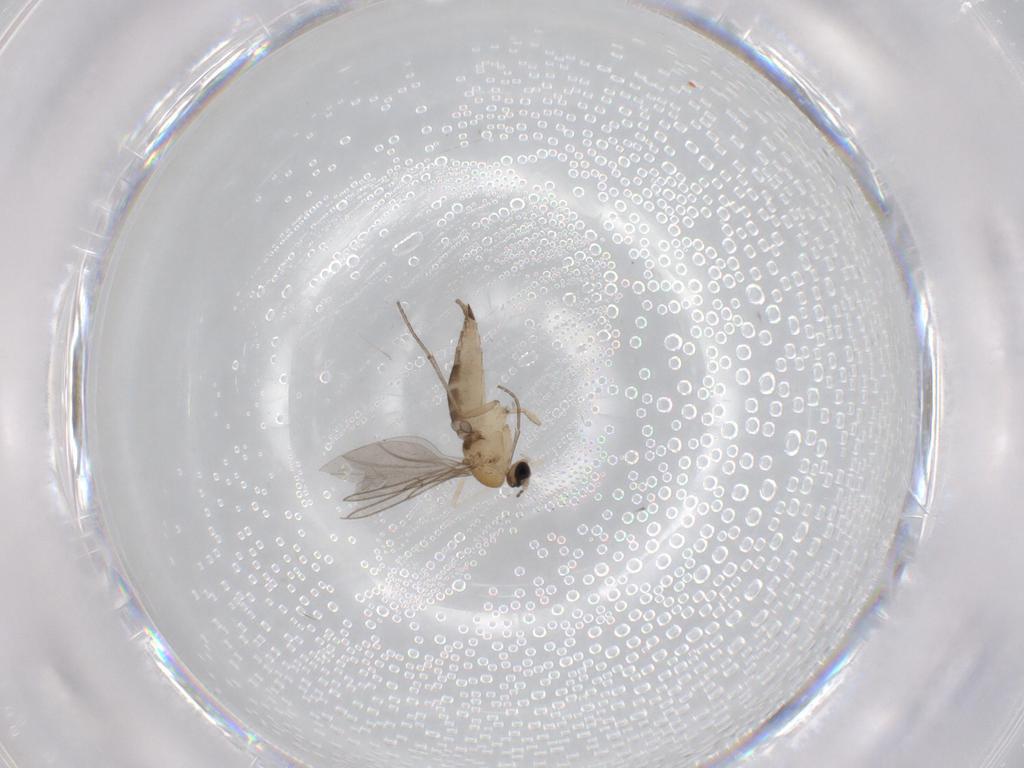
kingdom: Animalia
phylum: Arthropoda
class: Insecta
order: Diptera
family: Sciaridae
